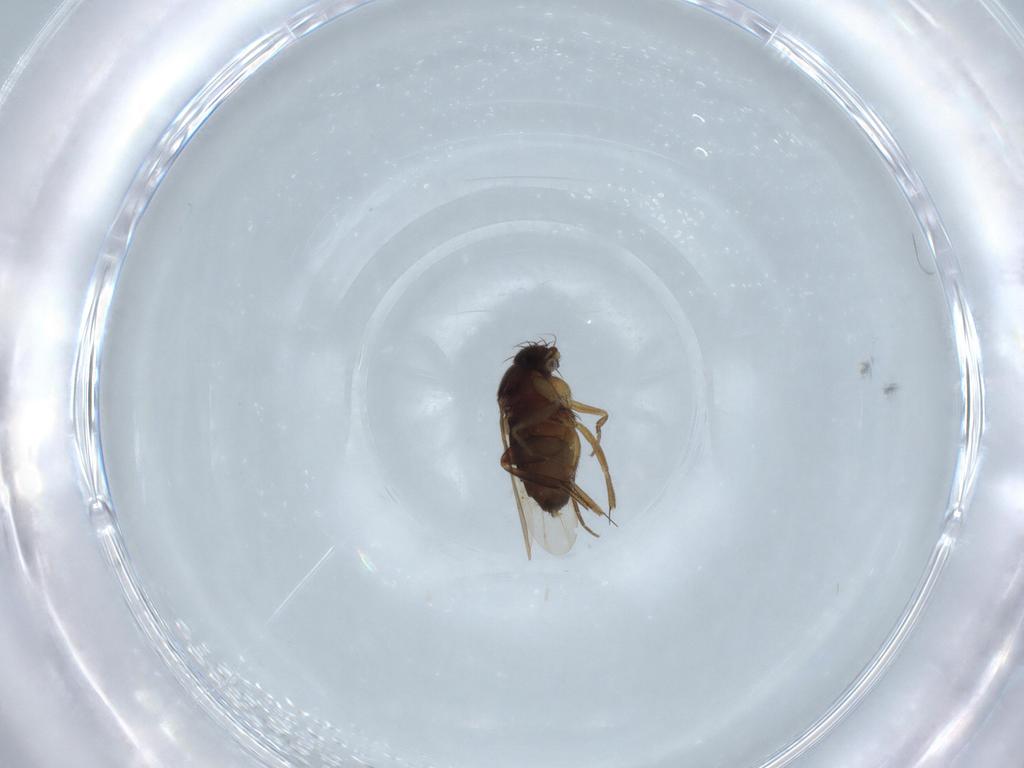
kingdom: Animalia
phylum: Arthropoda
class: Insecta
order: Diptera
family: Phoridae
